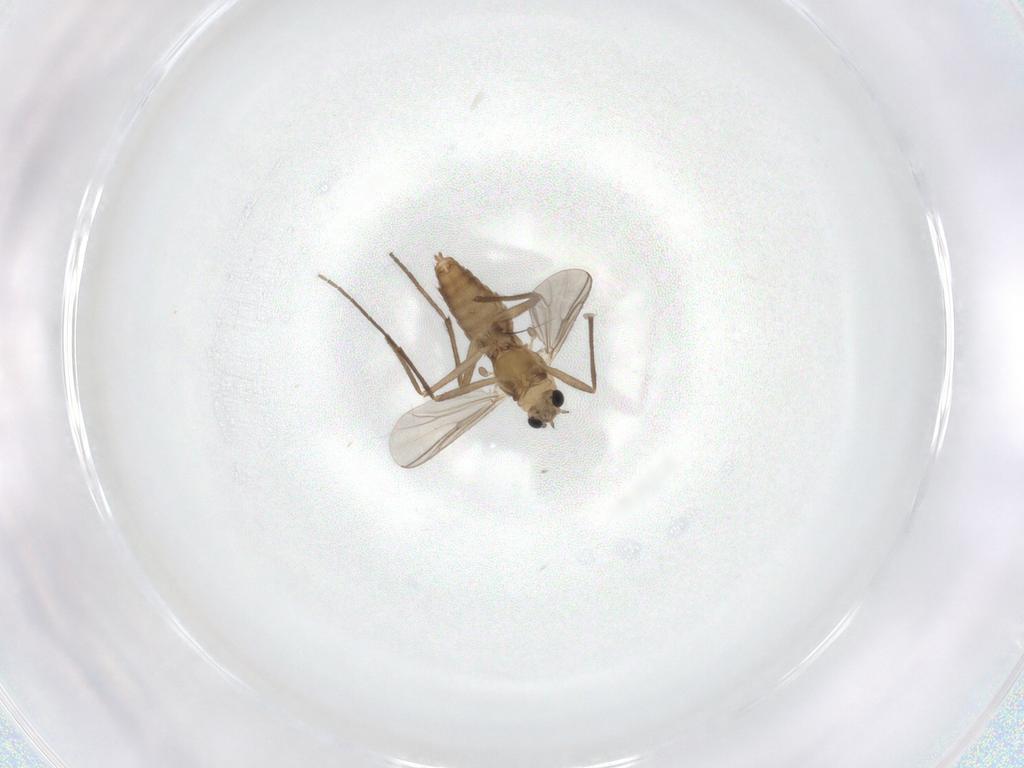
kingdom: Animalia
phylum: Arthropoda
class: Insecta
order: Diptera
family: Chironomidae
